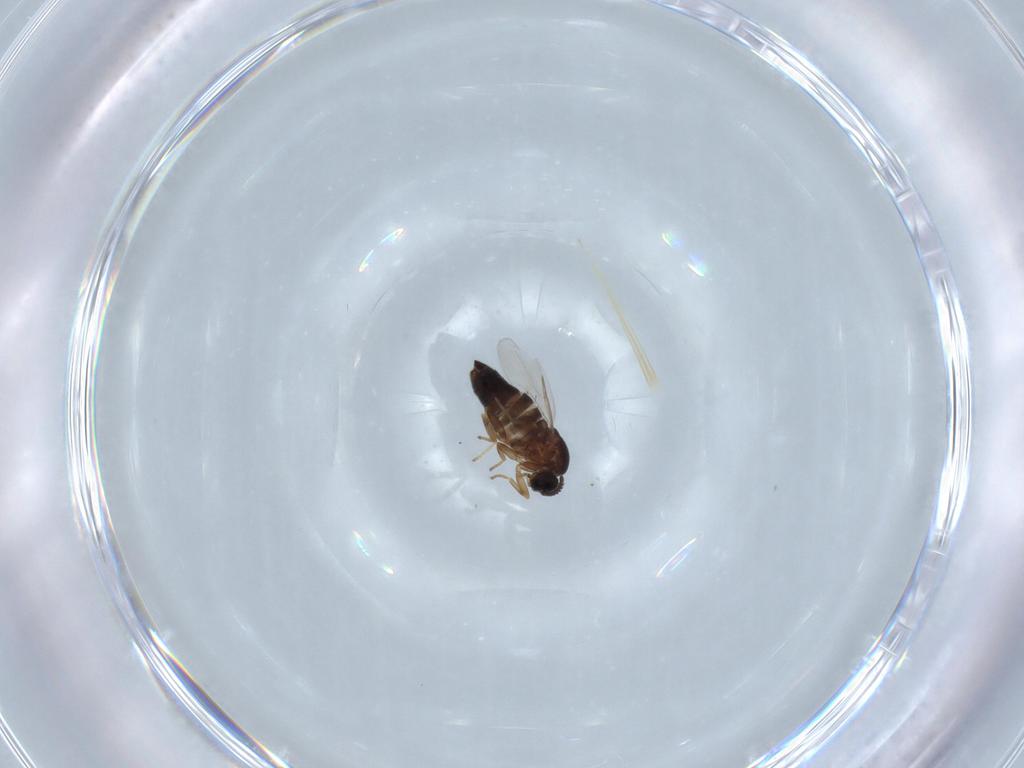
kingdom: Animalia
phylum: Arthropoda
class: Insecta
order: Diptera
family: Scatopsidae
